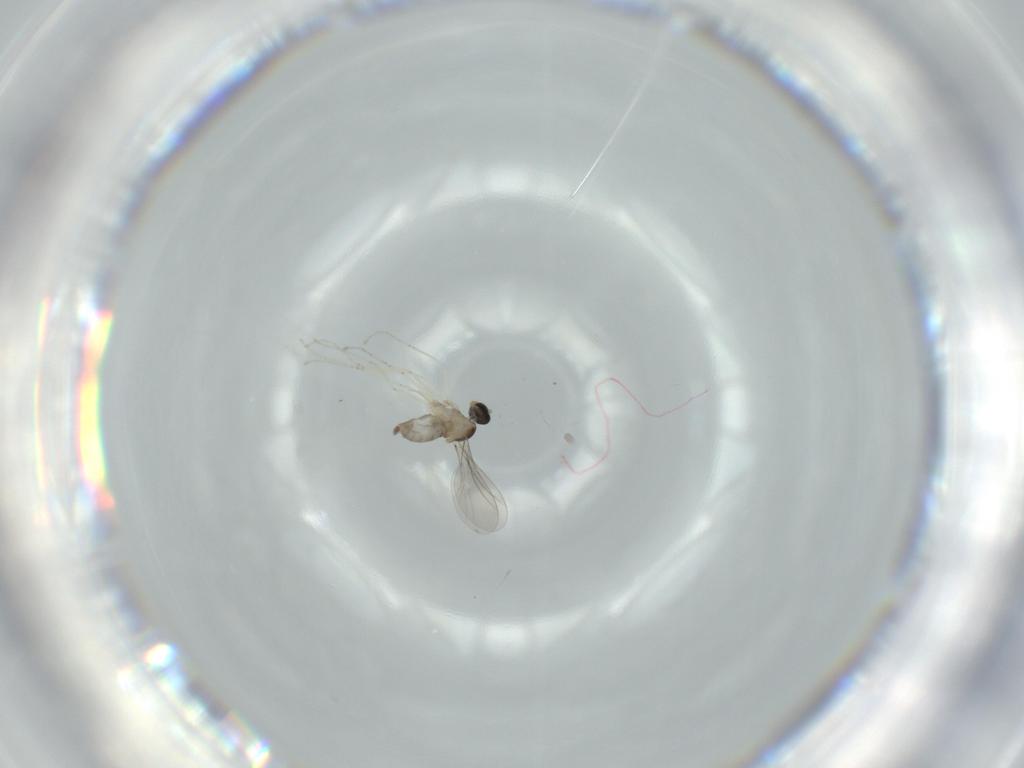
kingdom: Animalia
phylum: Arthropoda
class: Insecta
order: Diptera
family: Cecidomyiidae
